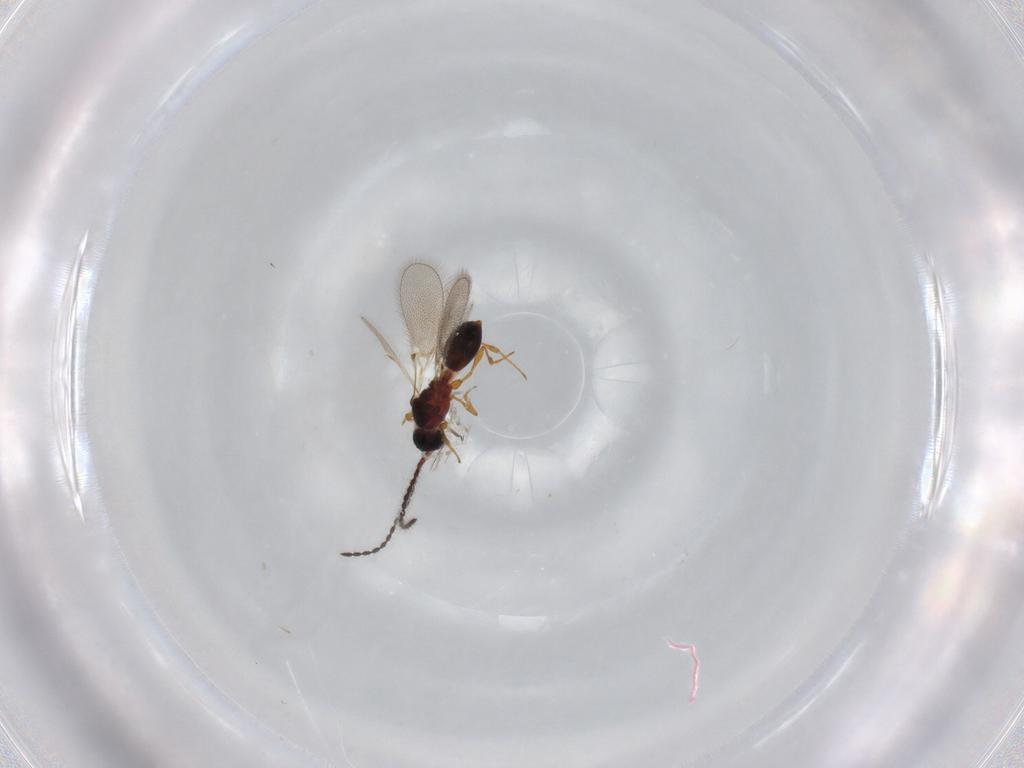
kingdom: Animalia
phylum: Arthropoda
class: Insecta
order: Hymenoptera
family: Diapriidae
